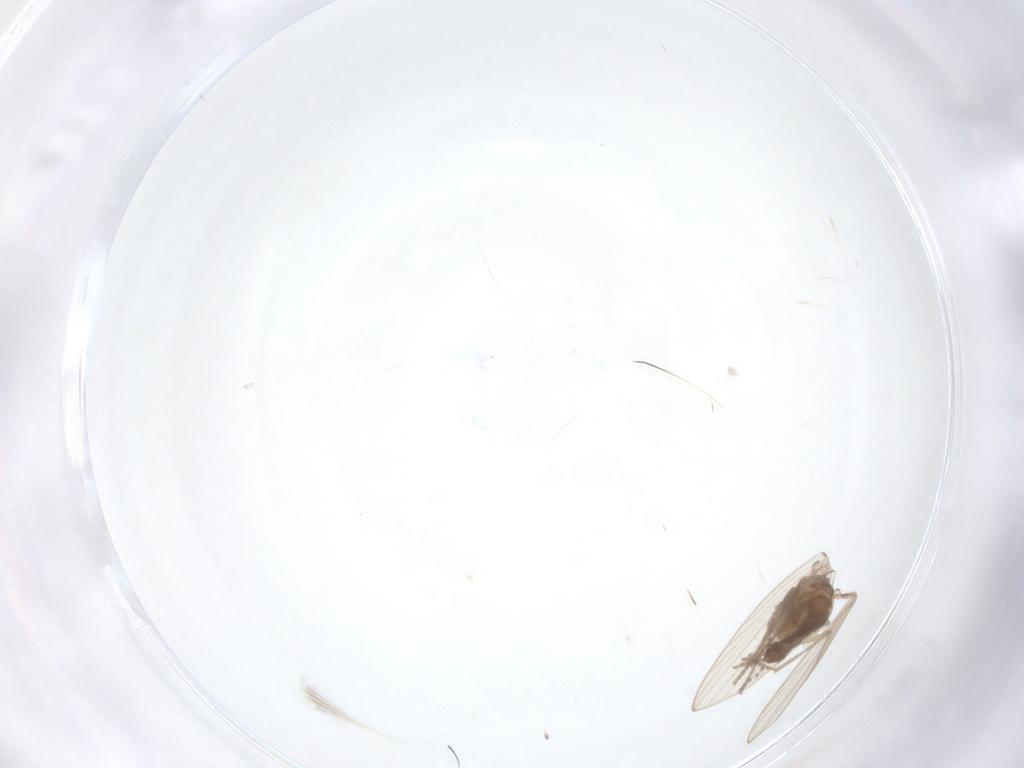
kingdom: Animalia
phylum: Arthropoda
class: Insecta
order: Diptera
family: Psychodidae
